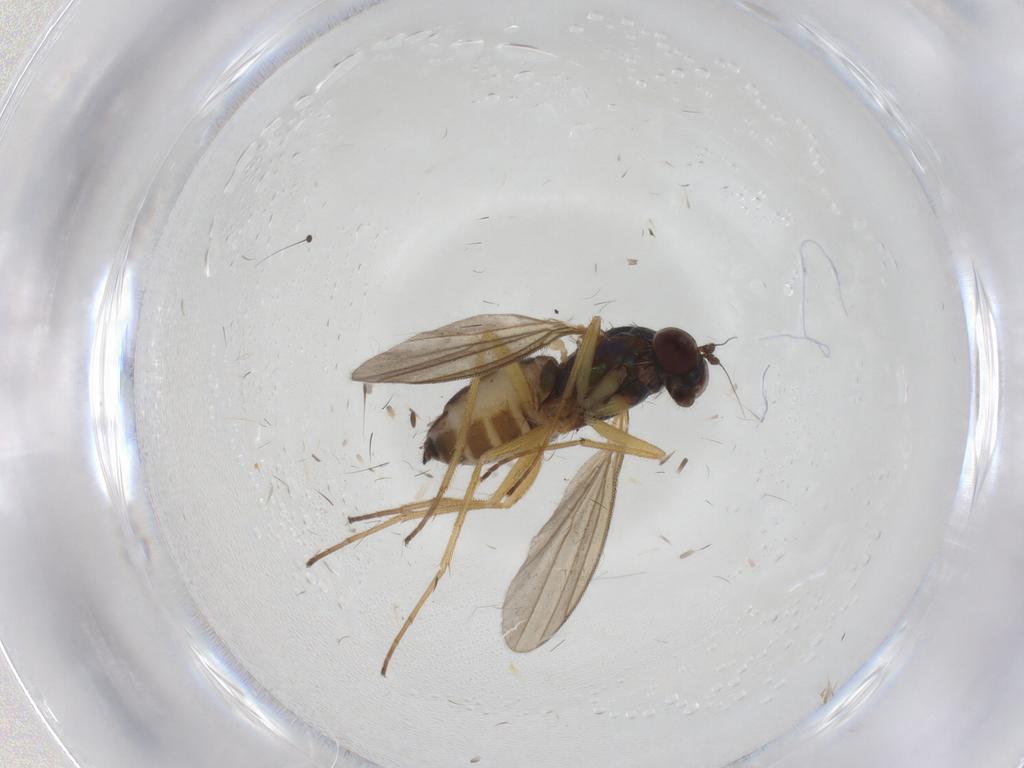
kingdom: Animalia
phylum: Arthropoda
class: Insecta
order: Diptera
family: Dolichopodidae
